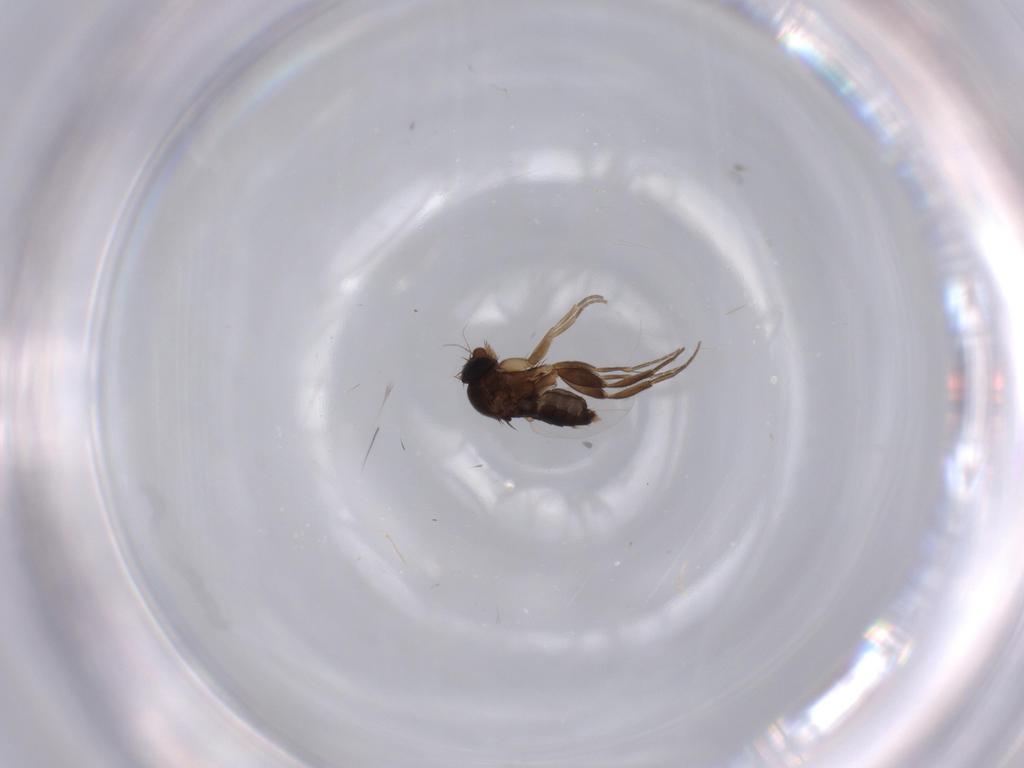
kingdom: Animalia
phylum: Arthropoda
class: Insecta
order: Diptera
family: Phoridae
